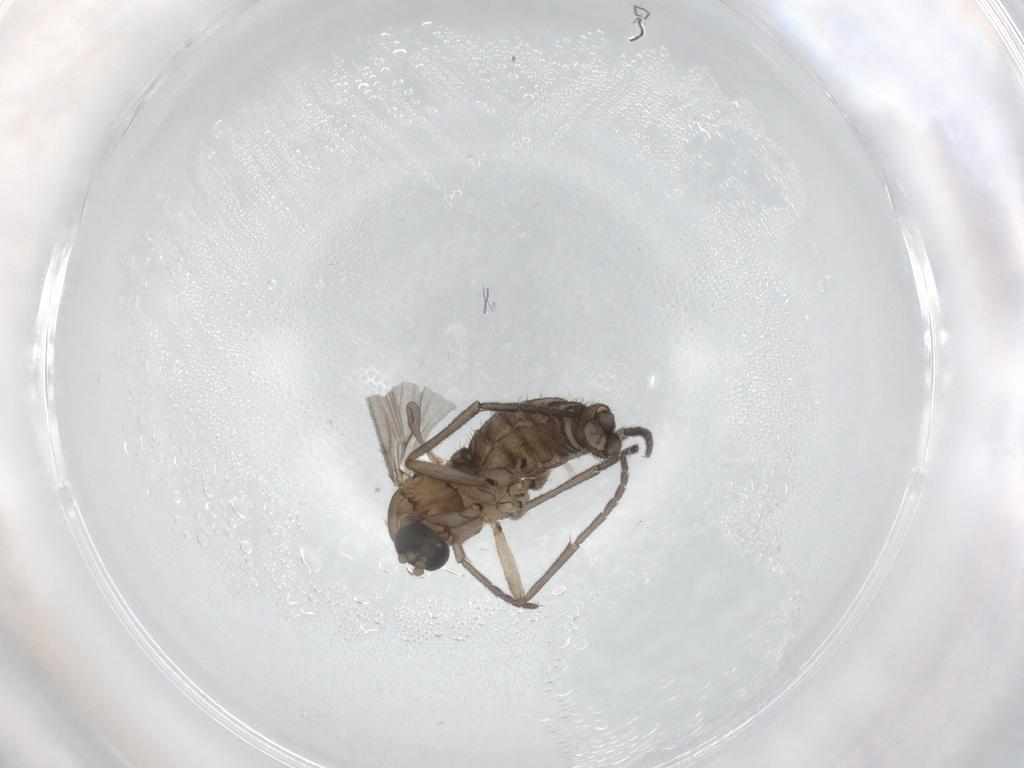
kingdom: Animalia
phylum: Arthropoda
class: Insecta
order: Diptera
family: Sciaridae
